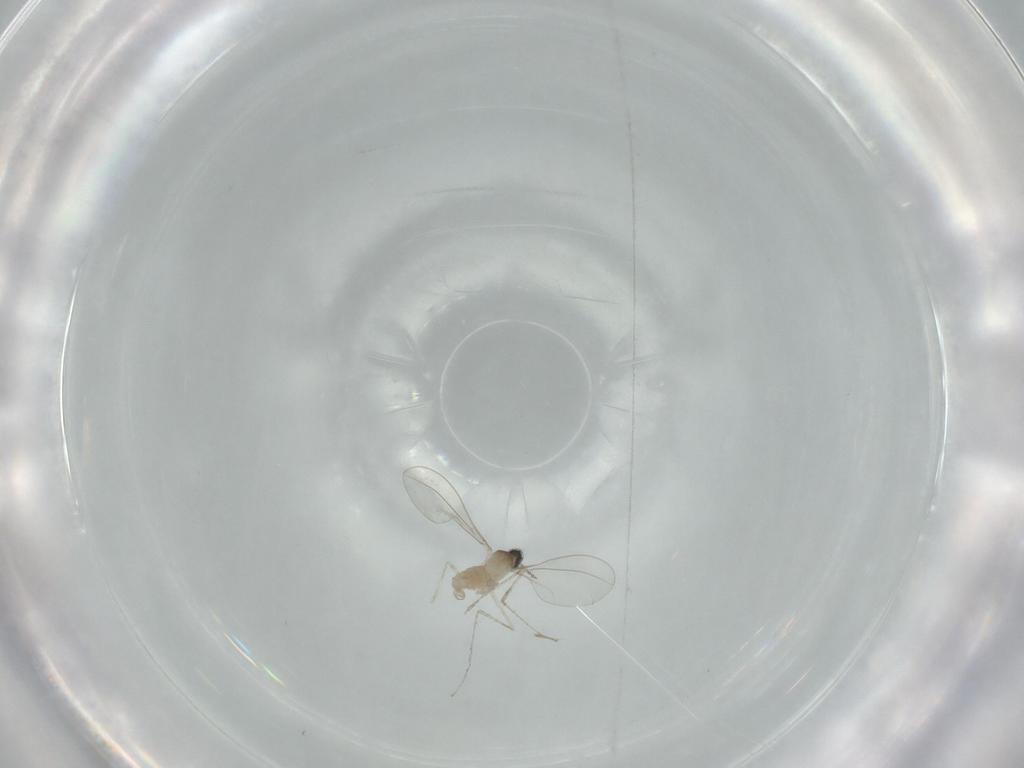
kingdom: Animalia
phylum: Arthropoda
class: Insecta
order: Diptera
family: Cecidomyiidae
